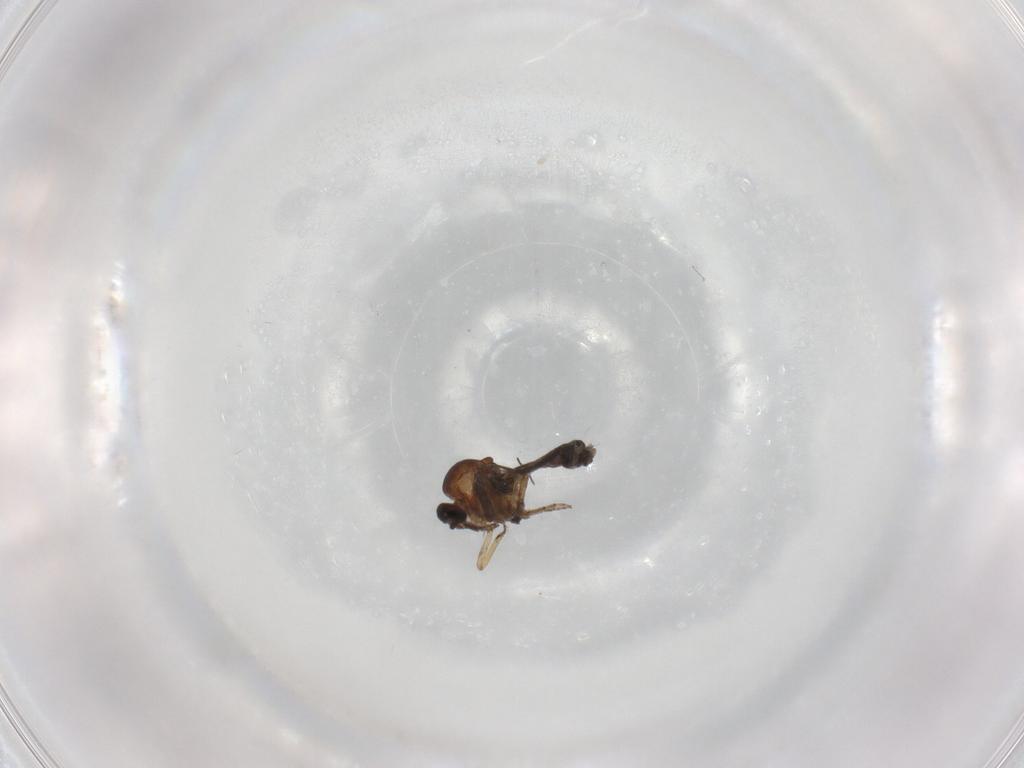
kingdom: Animalia
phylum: Arthropoda
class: Insecta
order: Diptera
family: Psychodidae
